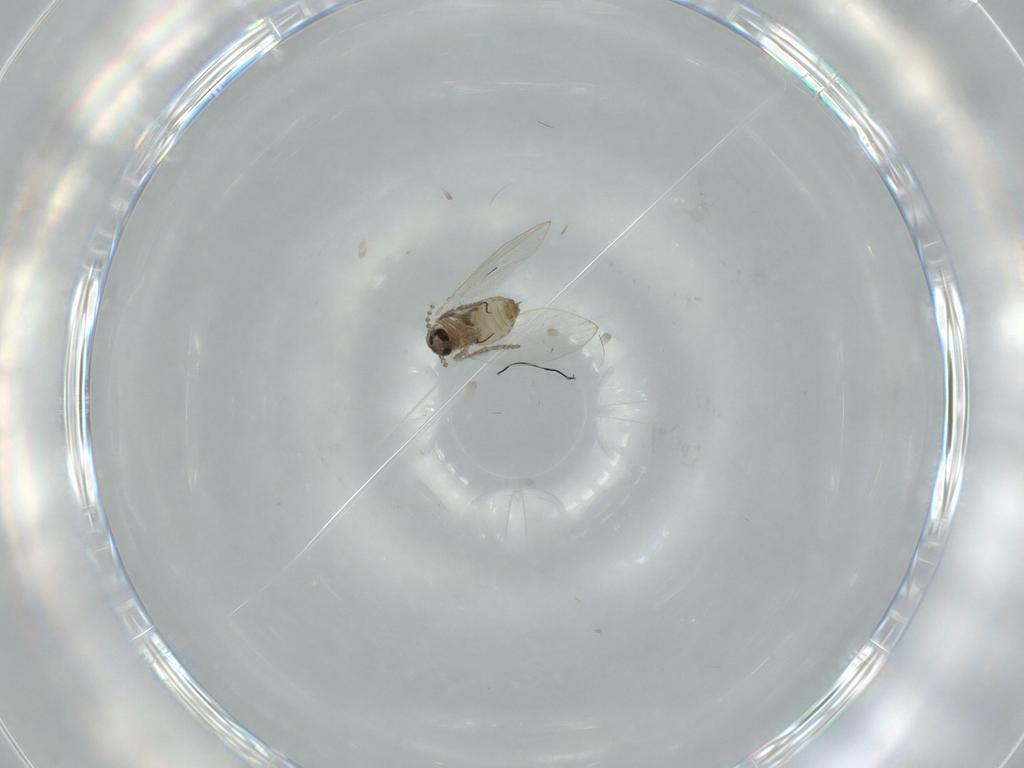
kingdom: Animalia
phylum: Arthropoda
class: Insecta
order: Diptera
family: Psychodidae
